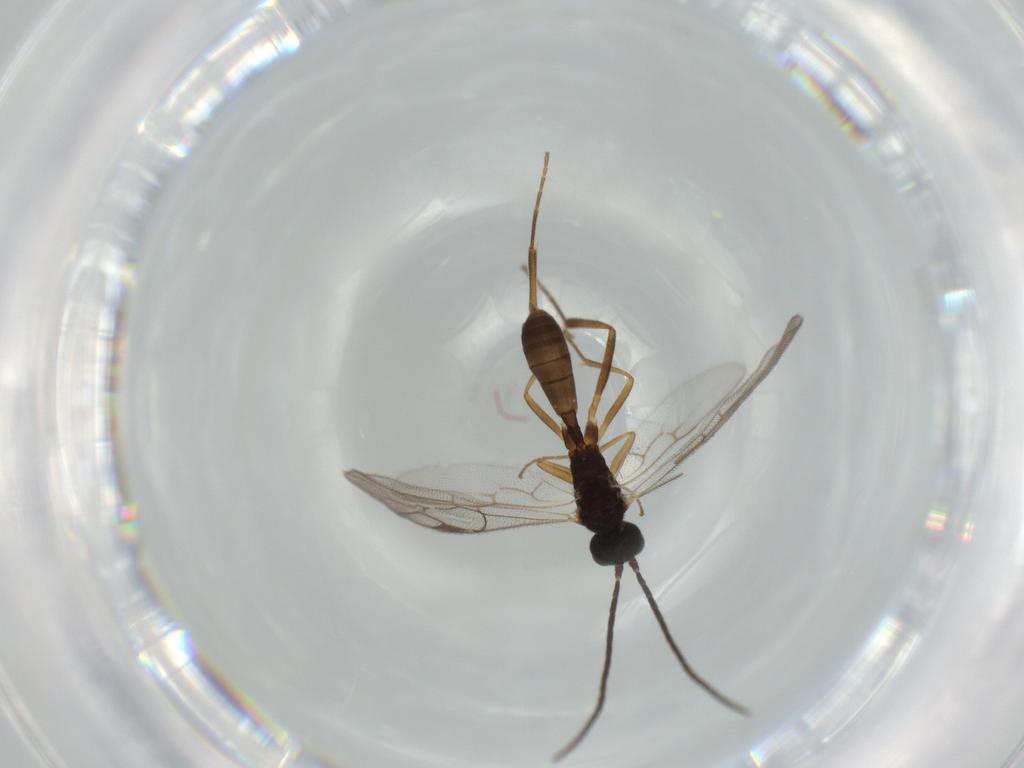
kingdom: Animalia
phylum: Arthropoda
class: Insecta
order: Hymenoptera
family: Ichneumonidae
